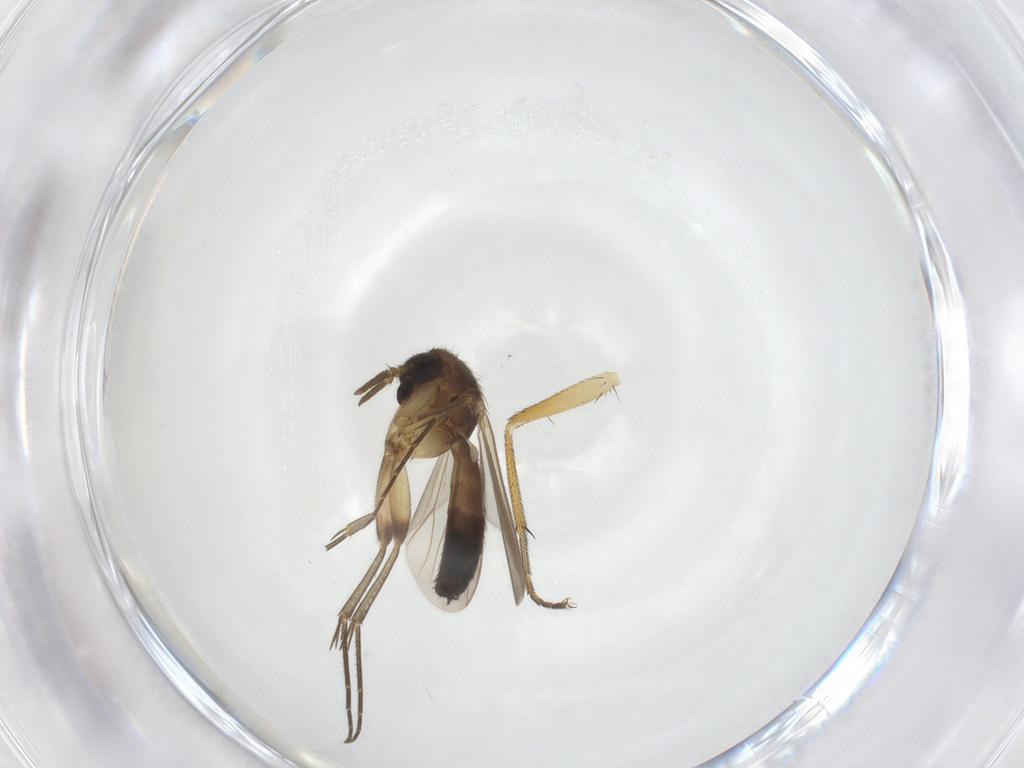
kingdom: Animalia
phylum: Arthropoda
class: Insecta
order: Diptera
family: Mycetophilidae
